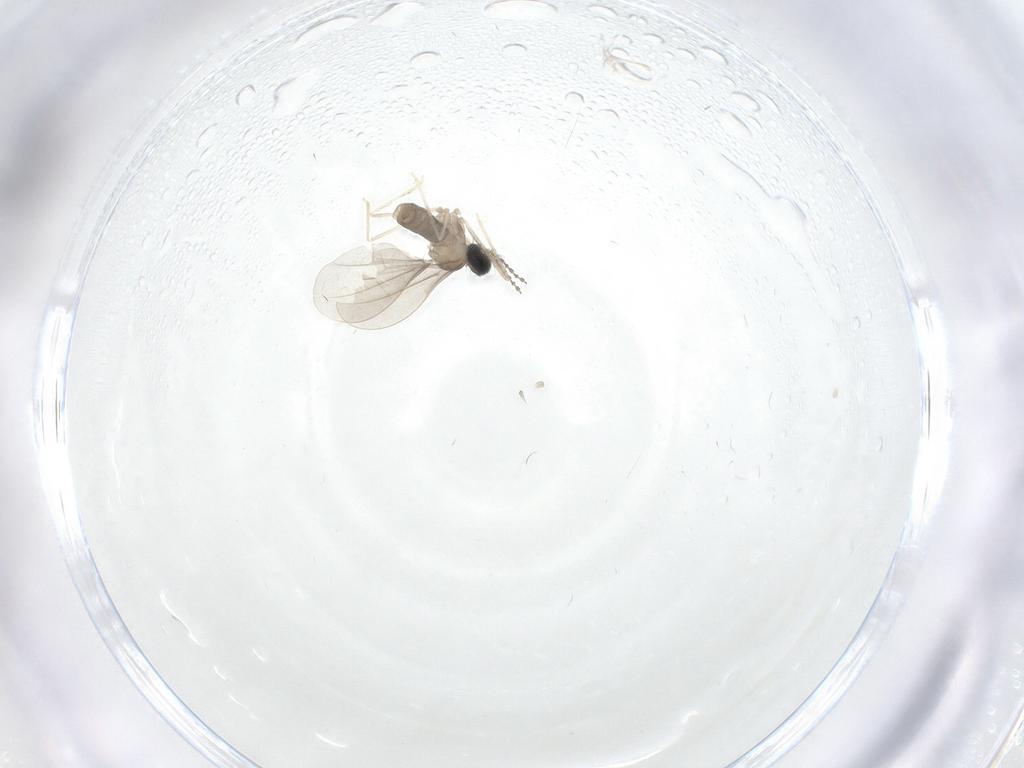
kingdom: Animalia
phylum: Arthropoda
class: Insecta
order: Diptera
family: Cecidomyiidae
